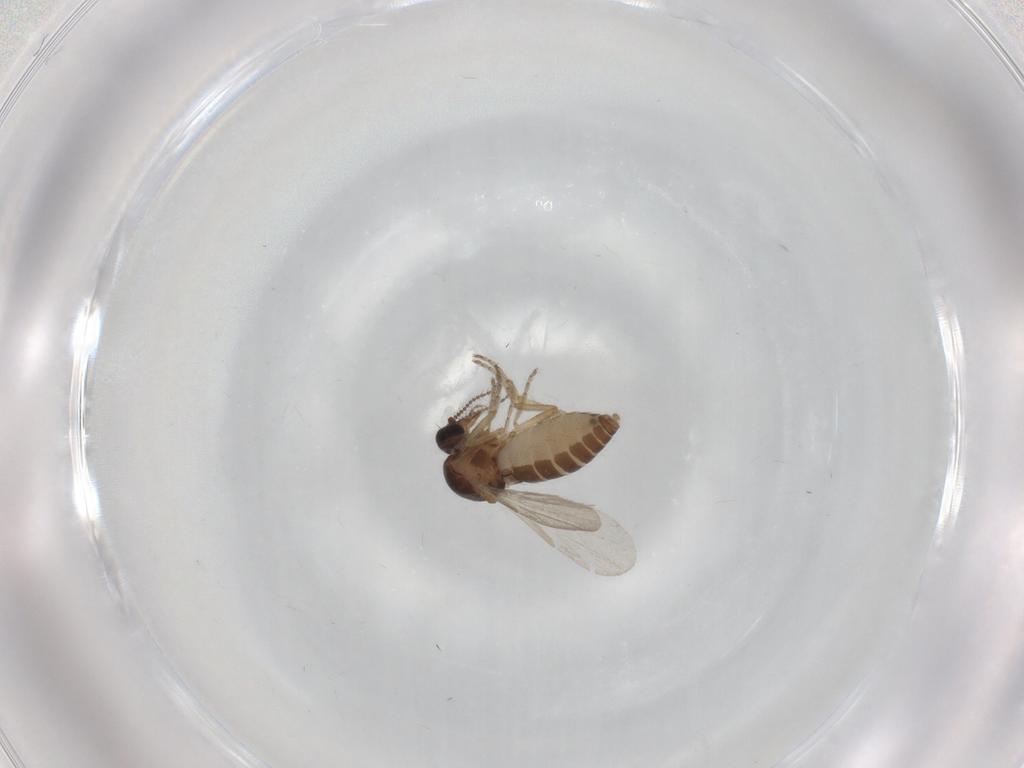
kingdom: Animalia
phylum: Arthropoda
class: Insecta
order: Diptera
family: Ceratopogonidae
